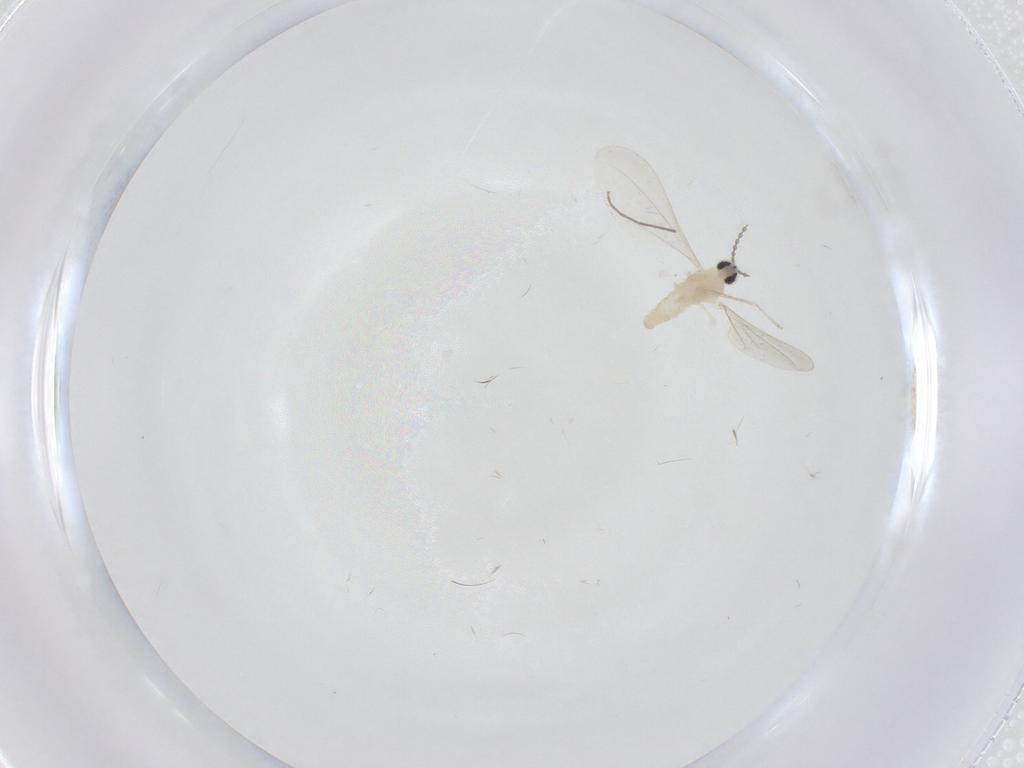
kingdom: Animalia
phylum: Arthropoda
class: Insecta
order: Diptera
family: Chironomidae
